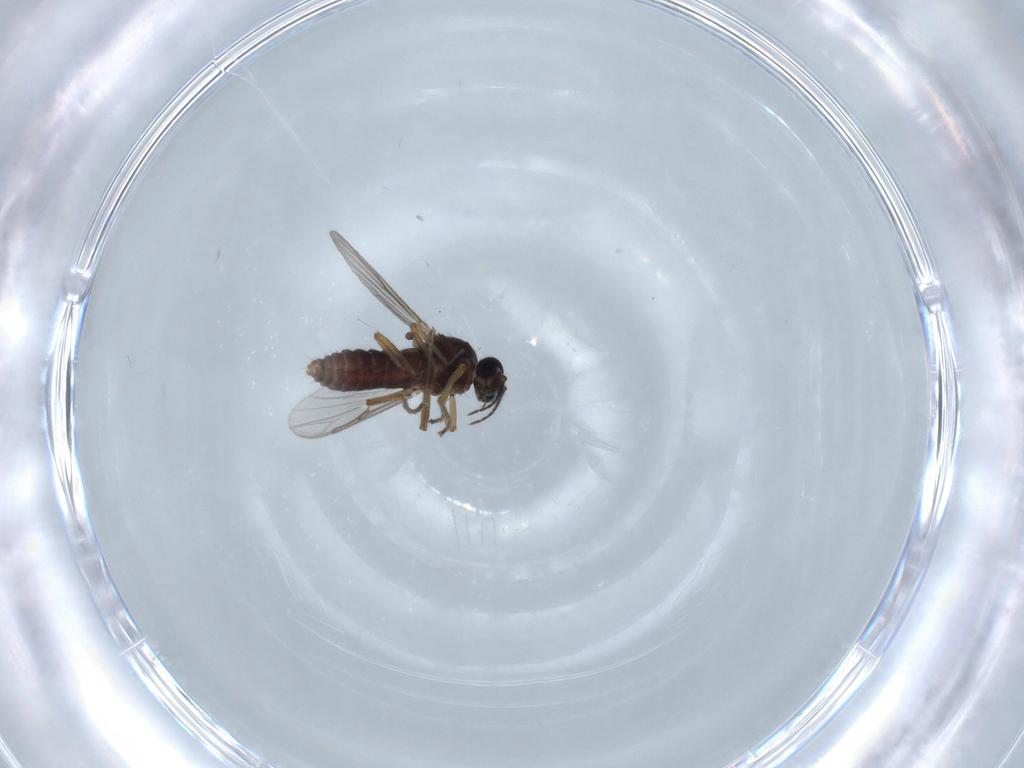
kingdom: Animalia
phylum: Arthropoda
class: Insecta
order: Diptera
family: Ceratopogonidae
